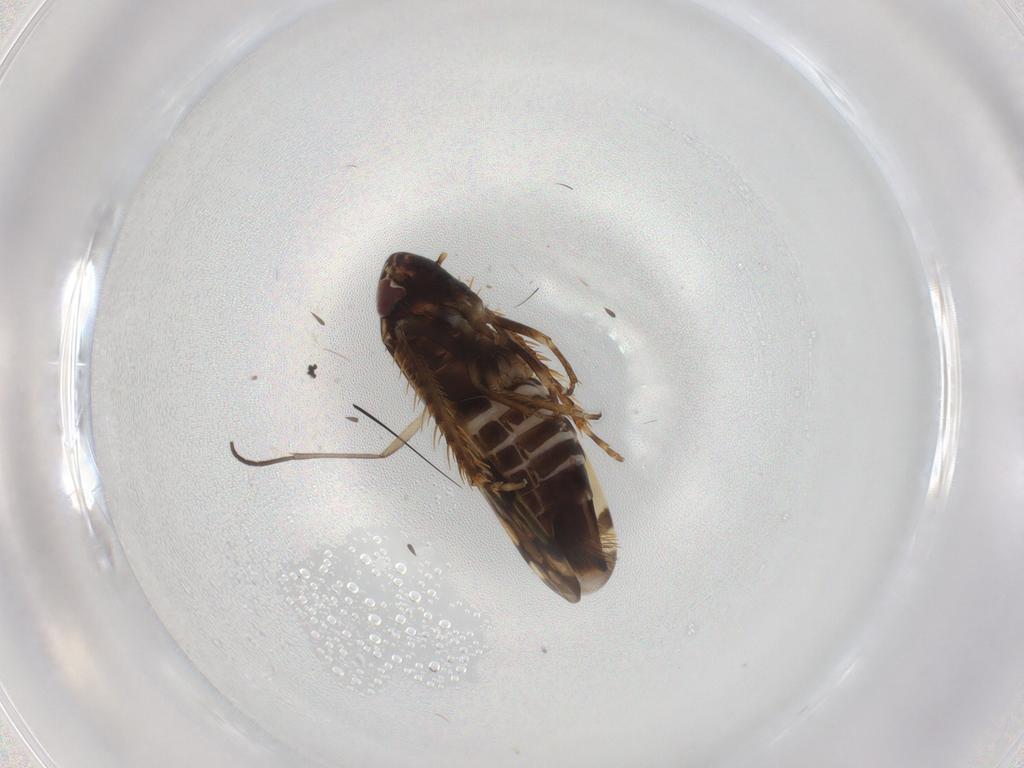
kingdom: Animalia
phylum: Arthropoda
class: Insecta
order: Hemiptera
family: Cicadellidae
